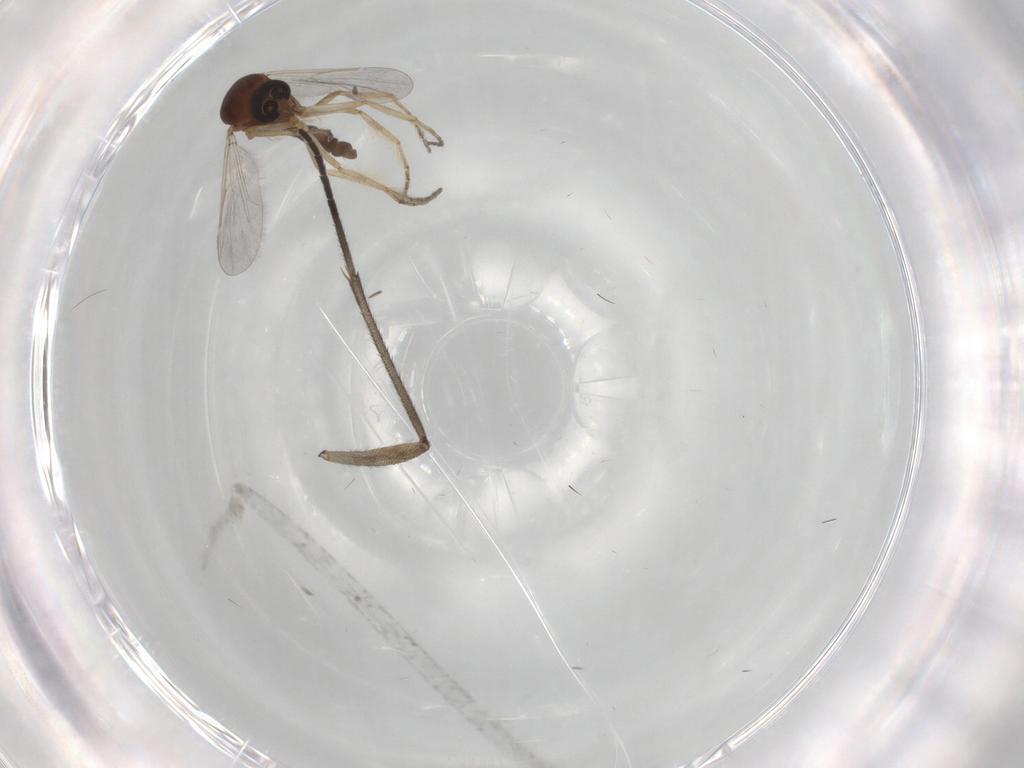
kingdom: Animalia
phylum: Arthropoda
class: Insecta
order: Diptera
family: Ceratopogonidae
